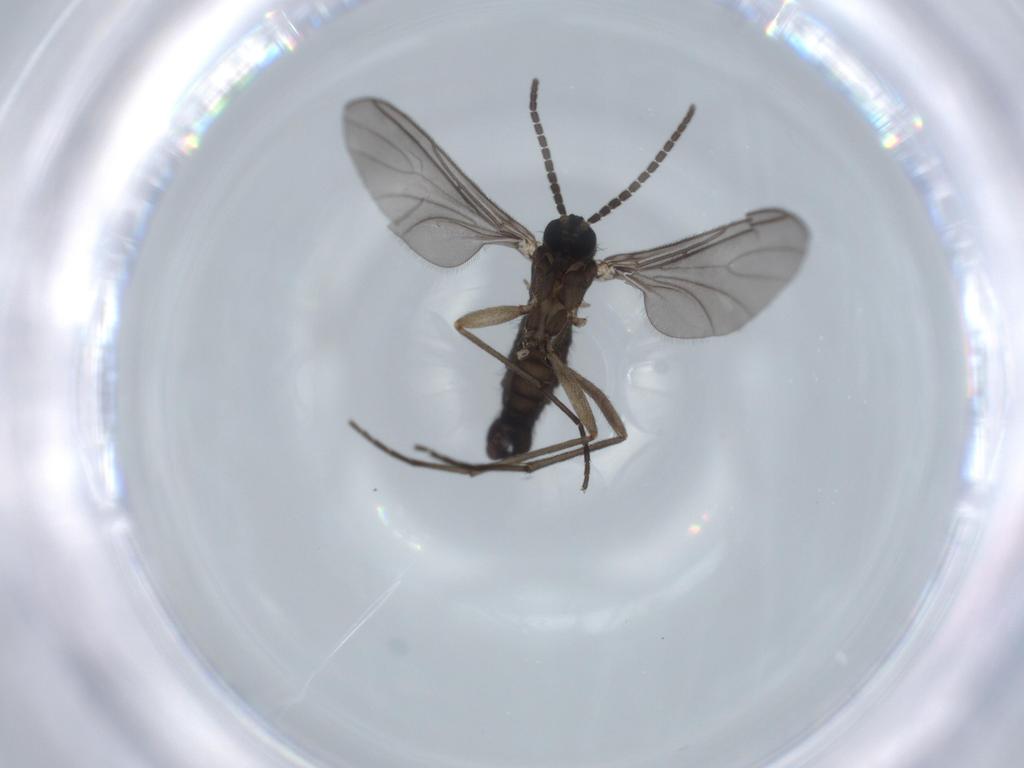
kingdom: Animalia
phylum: Arthropoda
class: Insecta
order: Diptera
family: Sciaridae
